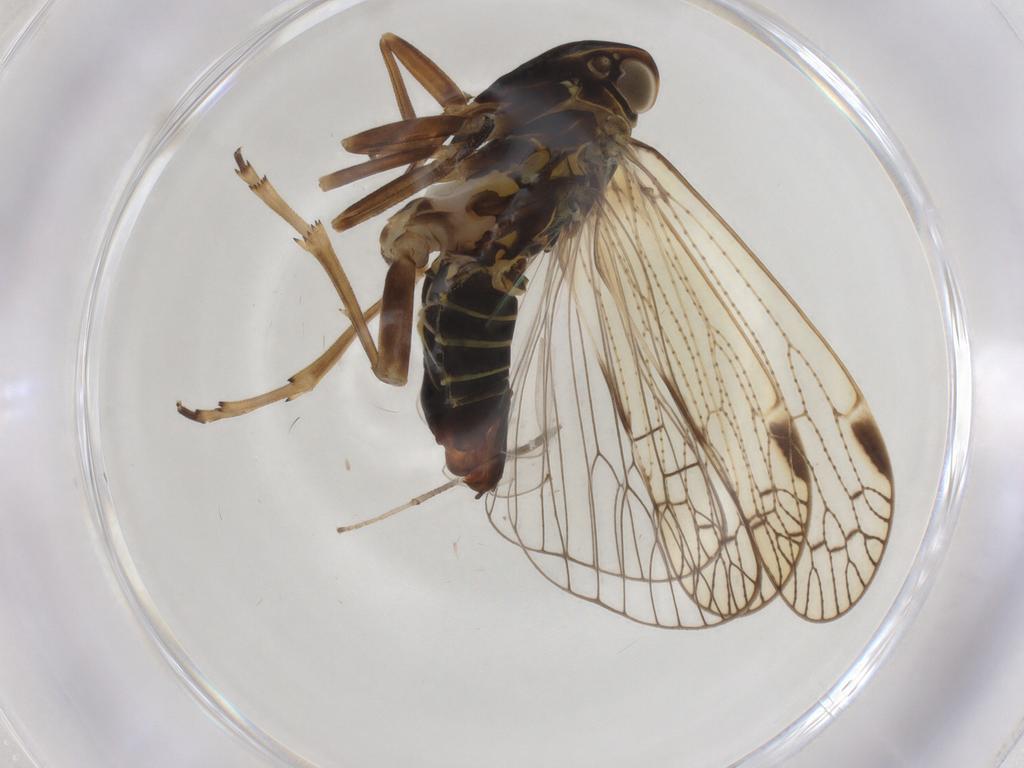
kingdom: Animalia
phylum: Arthropoda
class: Insecta
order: Hemiptera
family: Cixiidae
